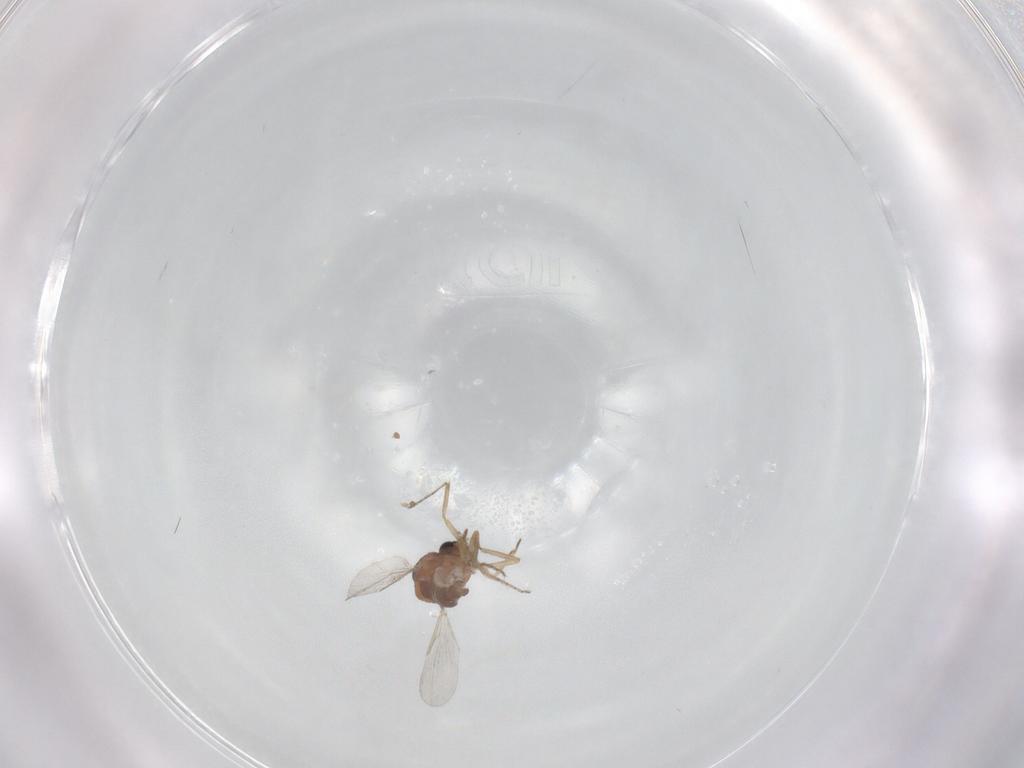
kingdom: Animalia
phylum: Arthropoda
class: Insecta
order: Diptera
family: Ceratopogonidae
